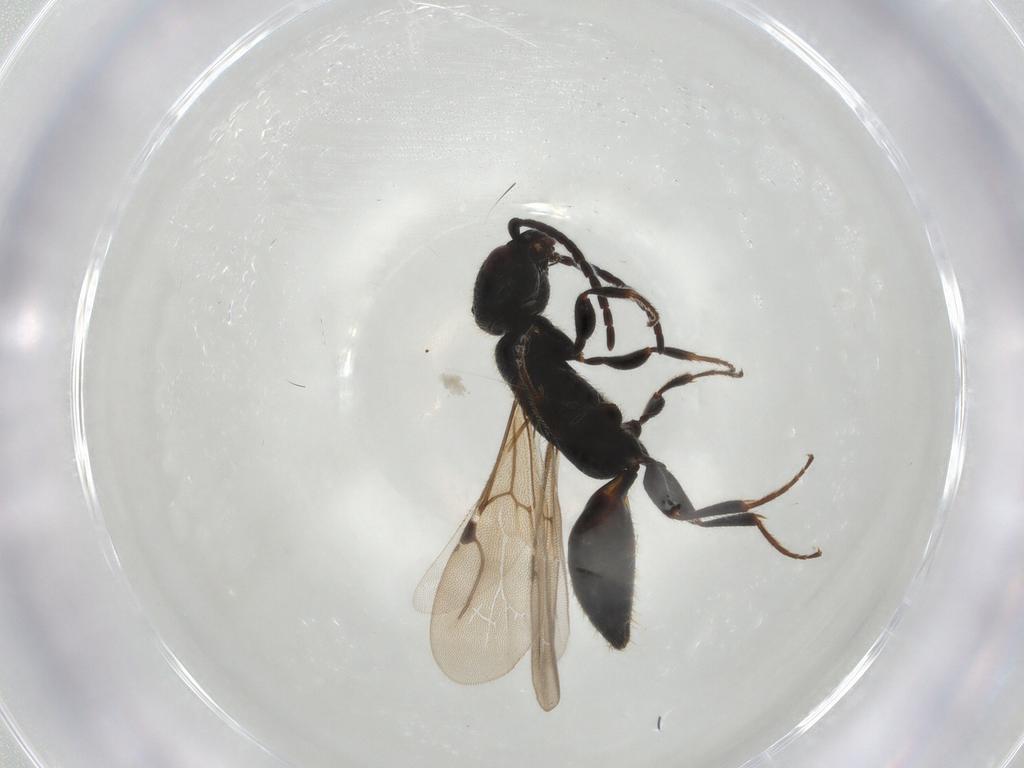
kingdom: Animalia
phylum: Arthropoda
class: Insecta
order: Hymenoptera
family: Bethylidae
